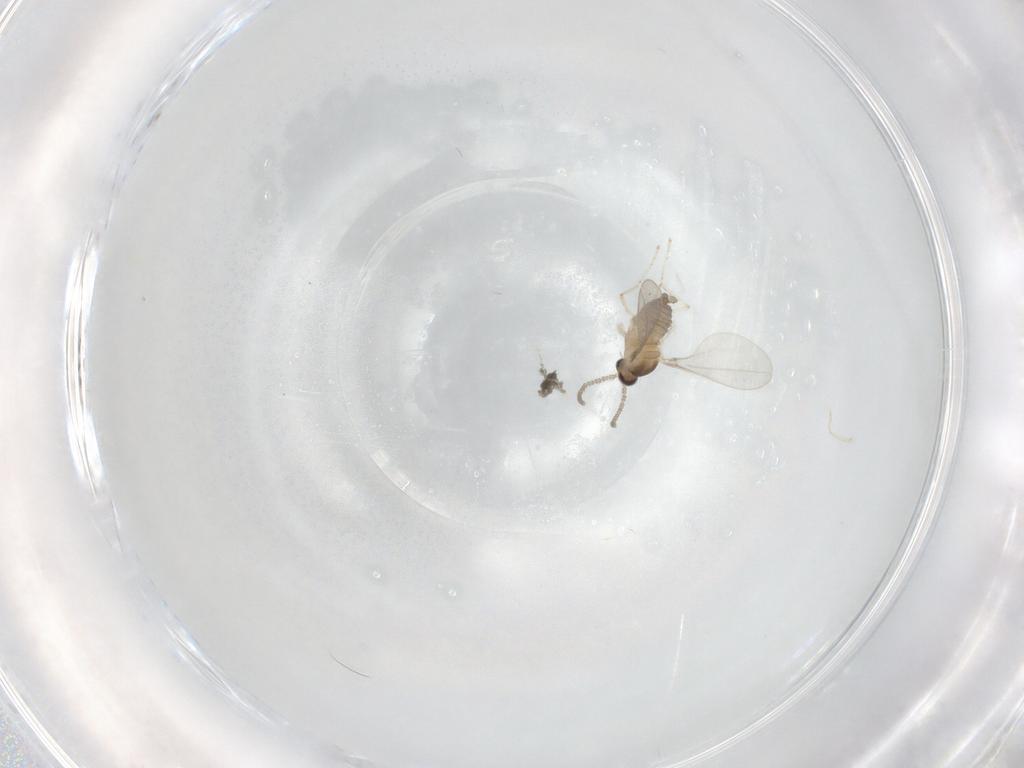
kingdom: Animalia
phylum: Arthropoda
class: Insecta
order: Diptera
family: Cecidomyiidae
